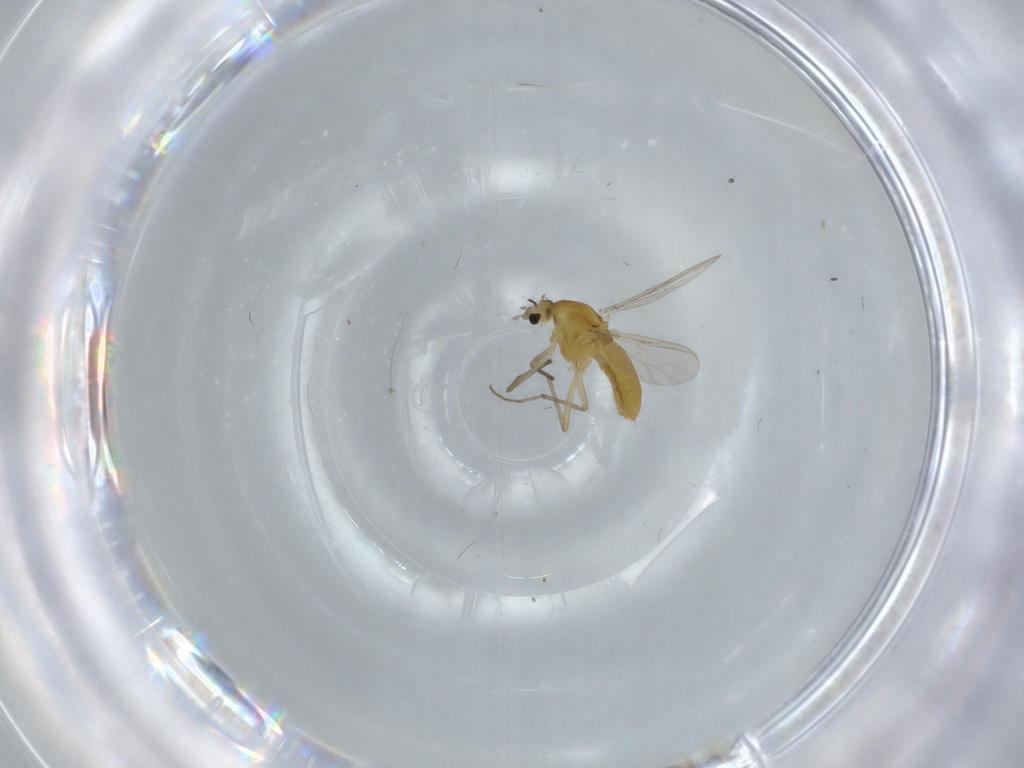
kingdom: Animalia
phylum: Arthropoda
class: Insecta
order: Diptera
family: Chironomidae
